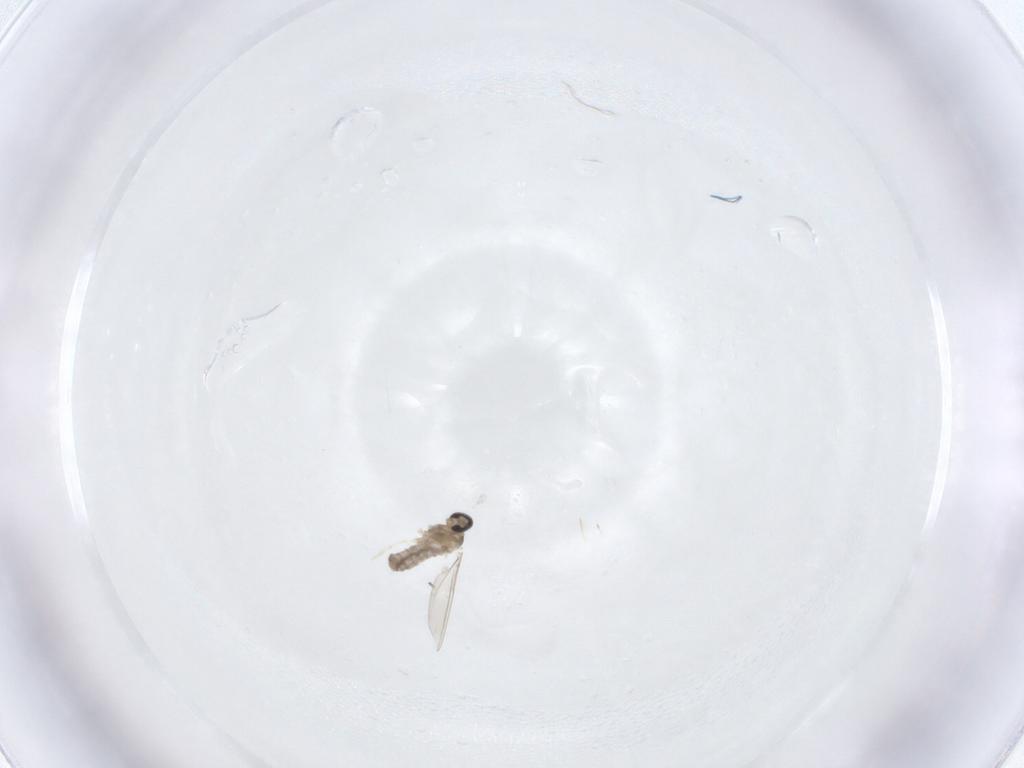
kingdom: Animalia
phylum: Arthropoda
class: Insecta
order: Diptera
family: Cecidomyiidae
